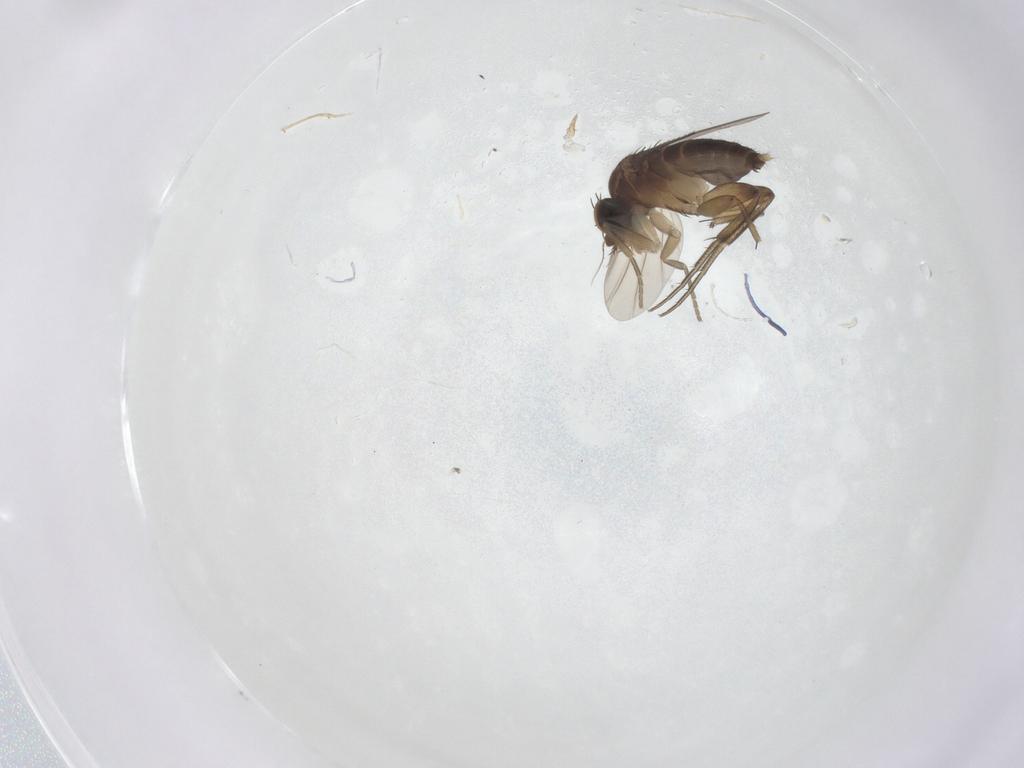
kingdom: Animalia
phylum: Arthropoda
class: Insecta
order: Diptera
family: Phoridae
